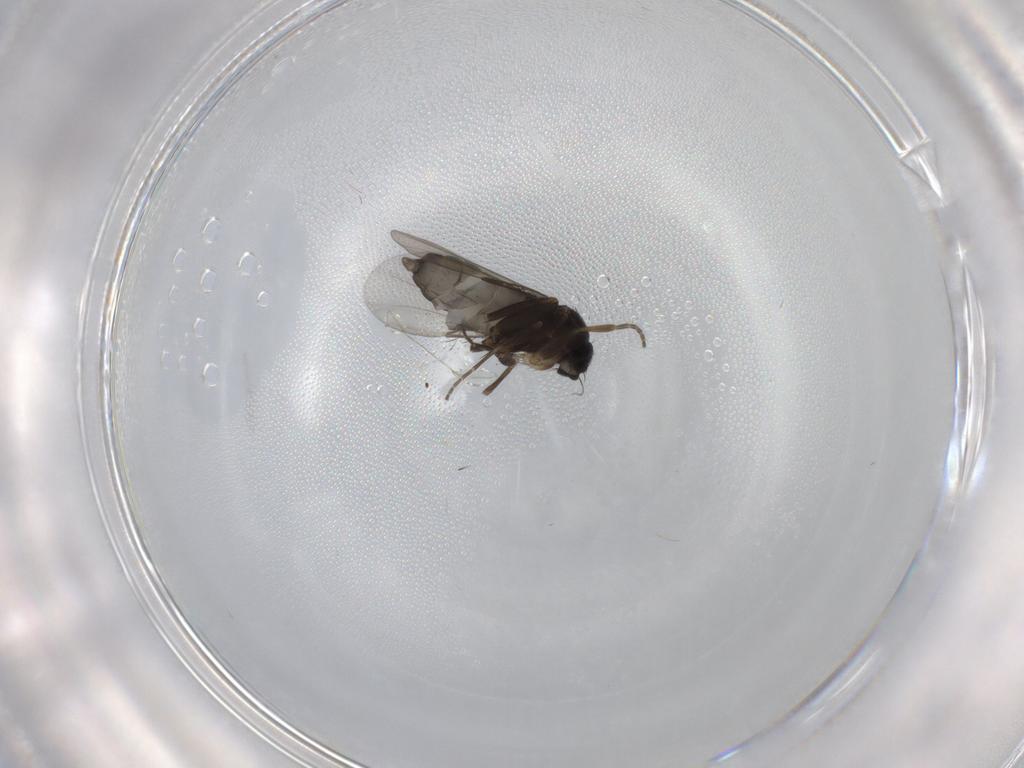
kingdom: Animalia
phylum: Arthropoda
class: Insecta
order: Diptera
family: Phoridae
